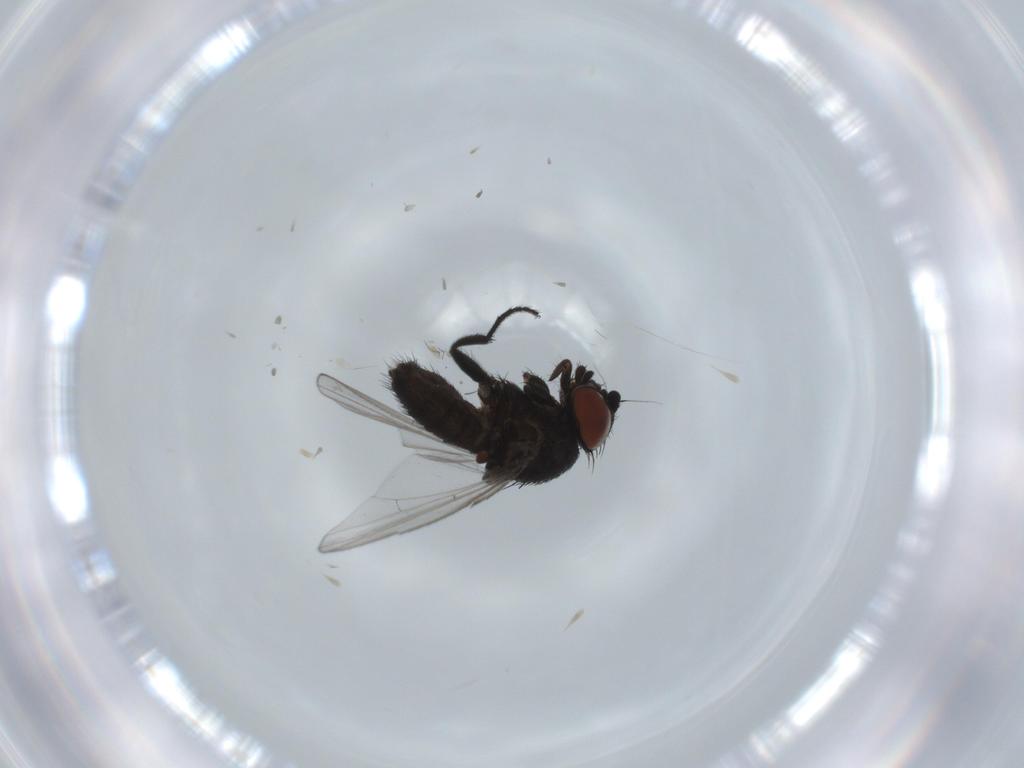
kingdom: Animalia
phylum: Arthropoda
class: Insecta
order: Diptera
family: Milichiidae
